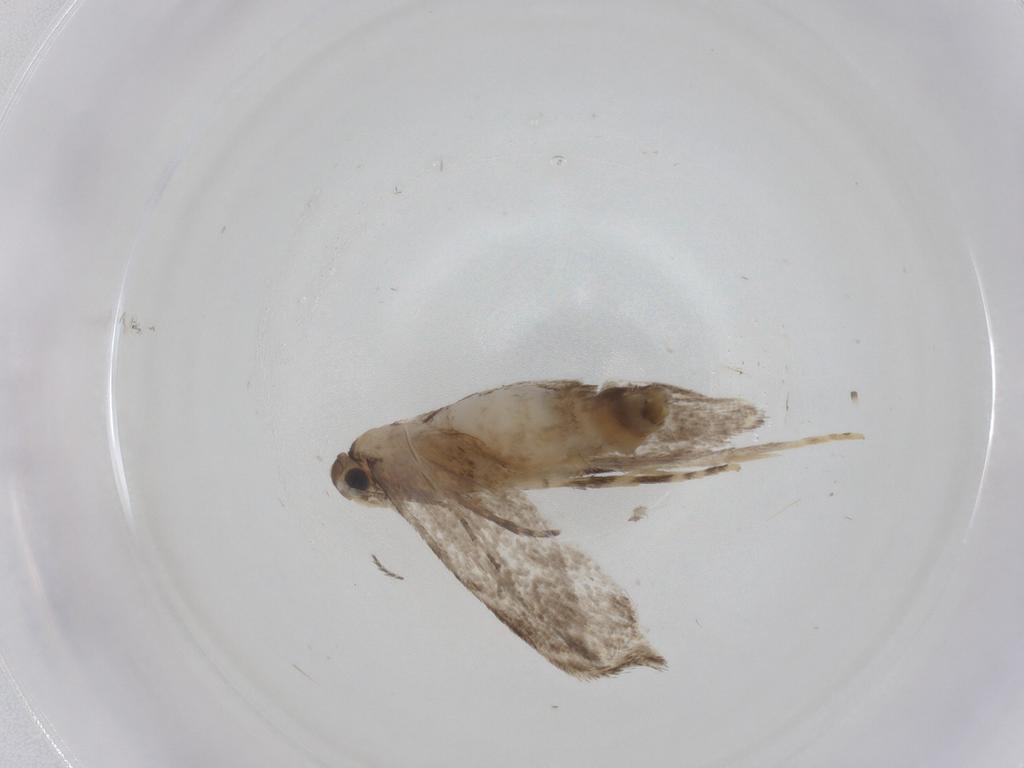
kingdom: Animalia
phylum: Arthropoda
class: Insecta
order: Lepidoptera
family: Tineidae
